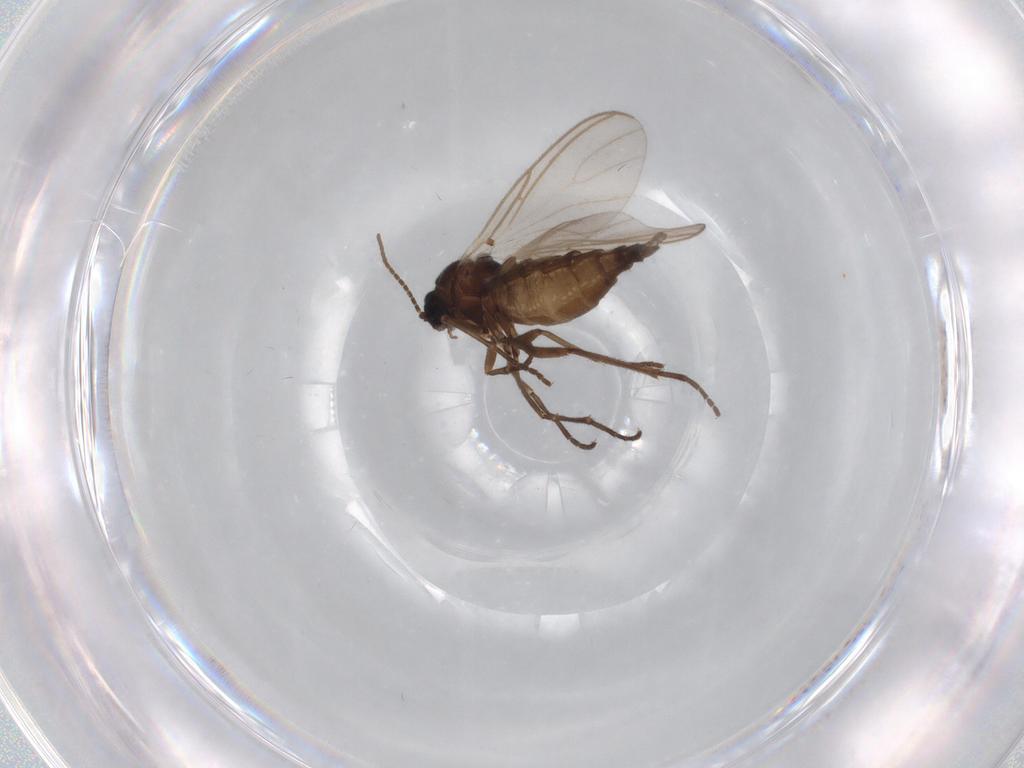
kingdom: Animalia
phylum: Arthropoda
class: Insecta
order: Diptera
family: Sciaridae
